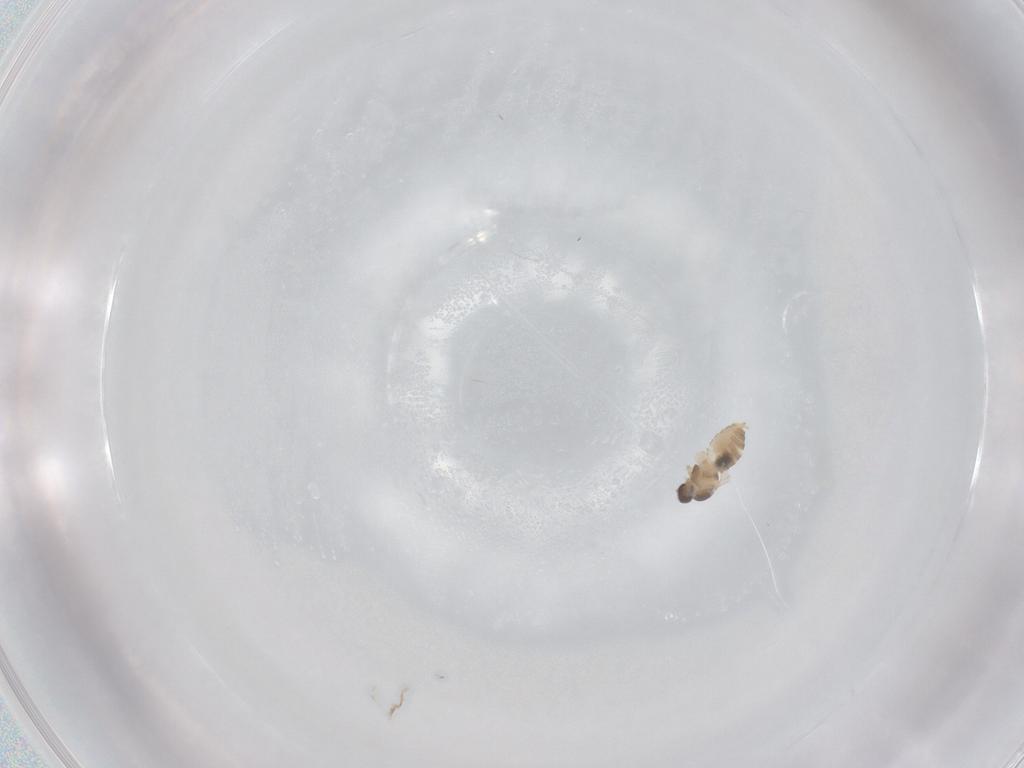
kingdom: Animalia
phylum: Arthropoda
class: Insecta
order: Diptera
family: Cecidomyiidae
